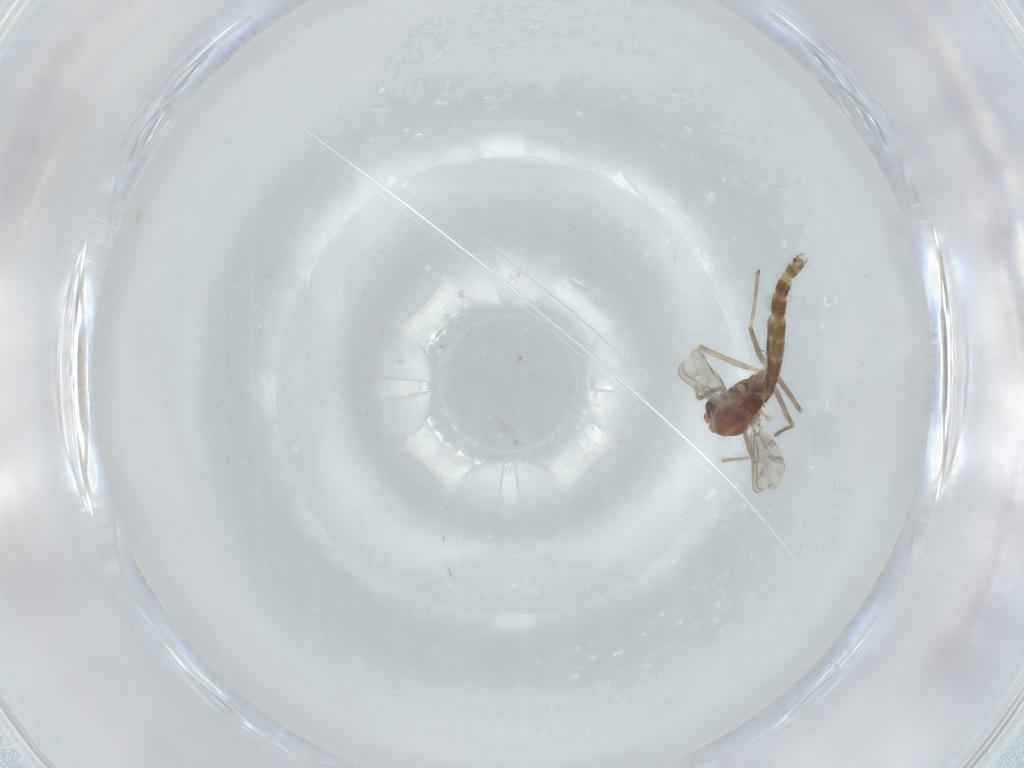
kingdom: Animalia
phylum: Arthropoda
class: Insecta
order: Diptera
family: Chironomidae
